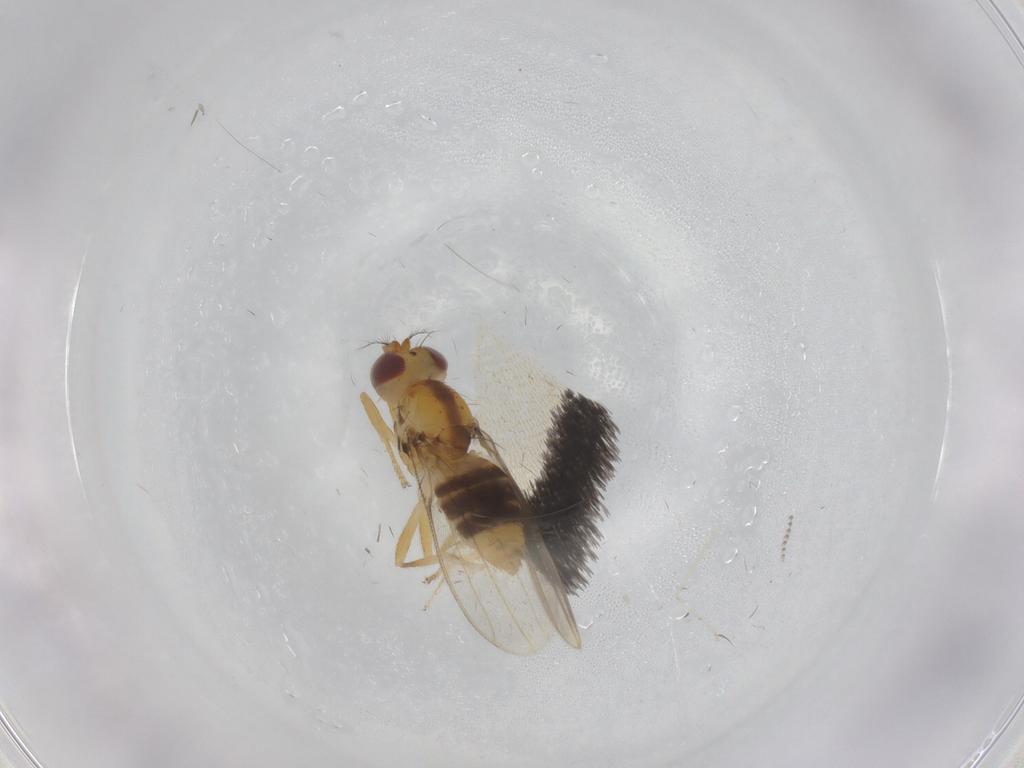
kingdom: Animalia
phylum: Arthropoda
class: Insecta
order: Diptera
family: Periscelididae
